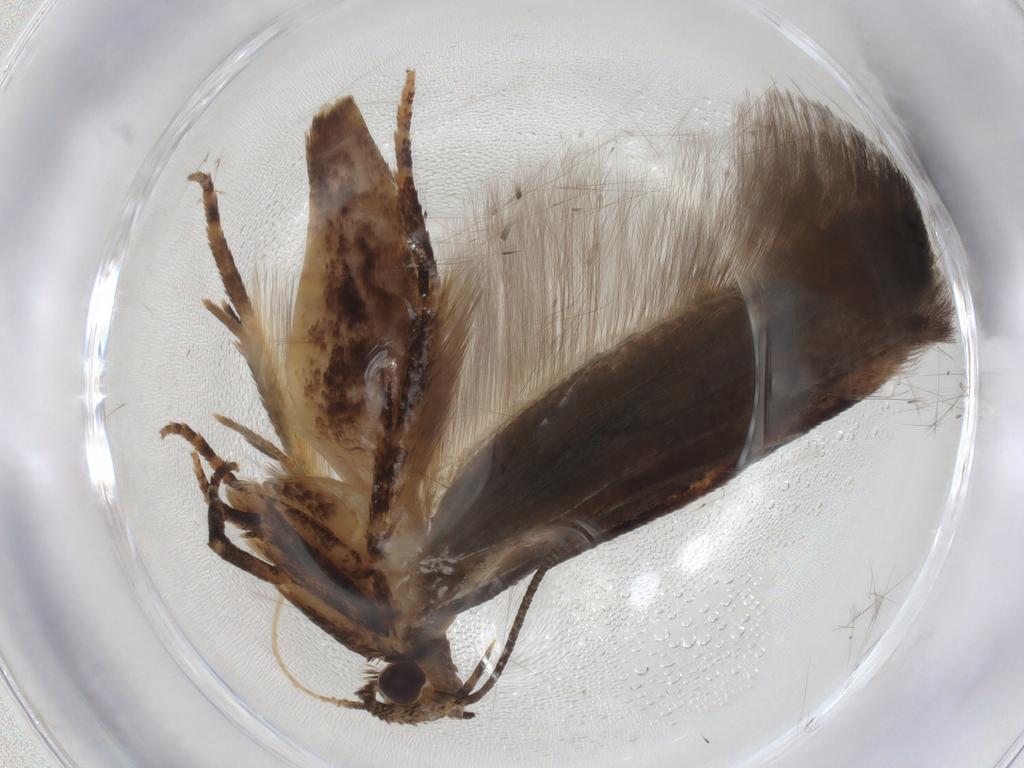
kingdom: Animalia
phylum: Arthropoda
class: Insecta
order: Lepidoptera
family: Gelechiidae
